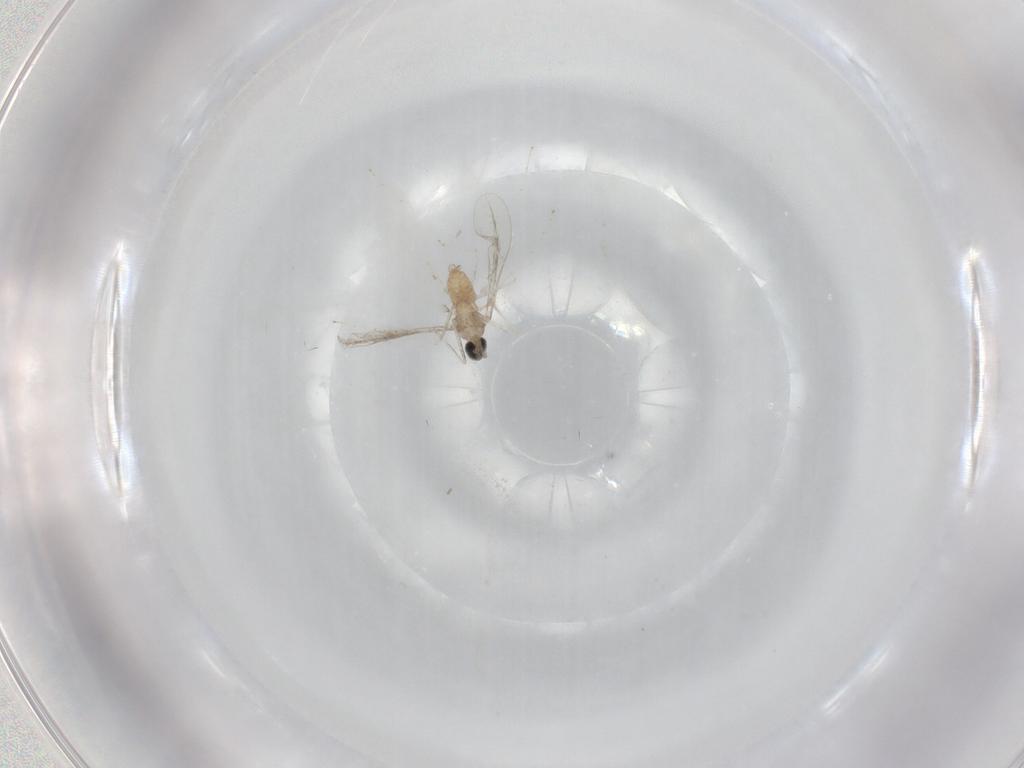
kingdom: Animalia
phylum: Arthropoda
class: Insecta
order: Diptera
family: Cecidomyiidae
